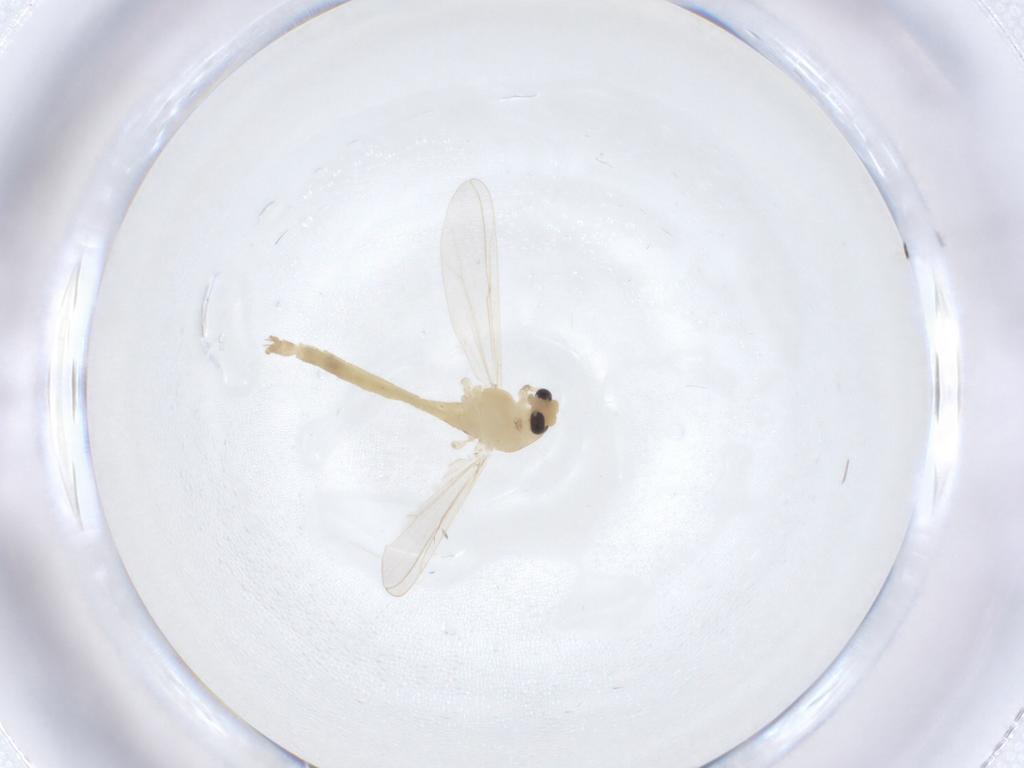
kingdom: Animalia
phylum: Arthropoda
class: Insecta
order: Diptera
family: Chironomidae
